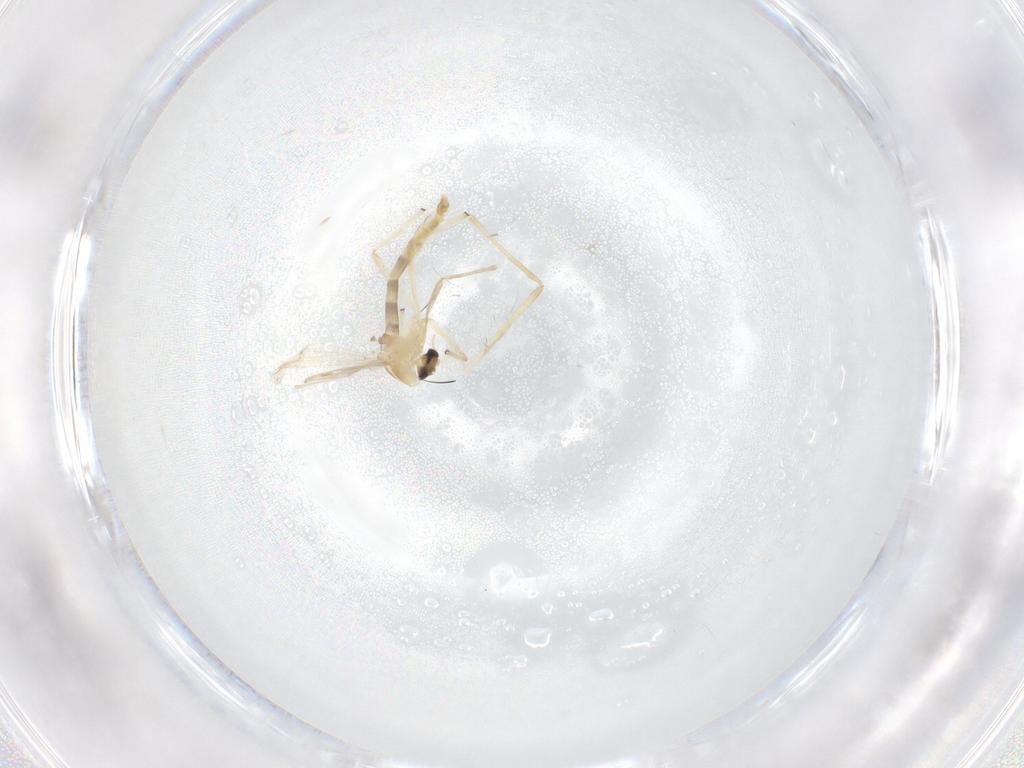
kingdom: Animalia
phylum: Arthropoda
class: Insecta
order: Diptera
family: Chironomidae
